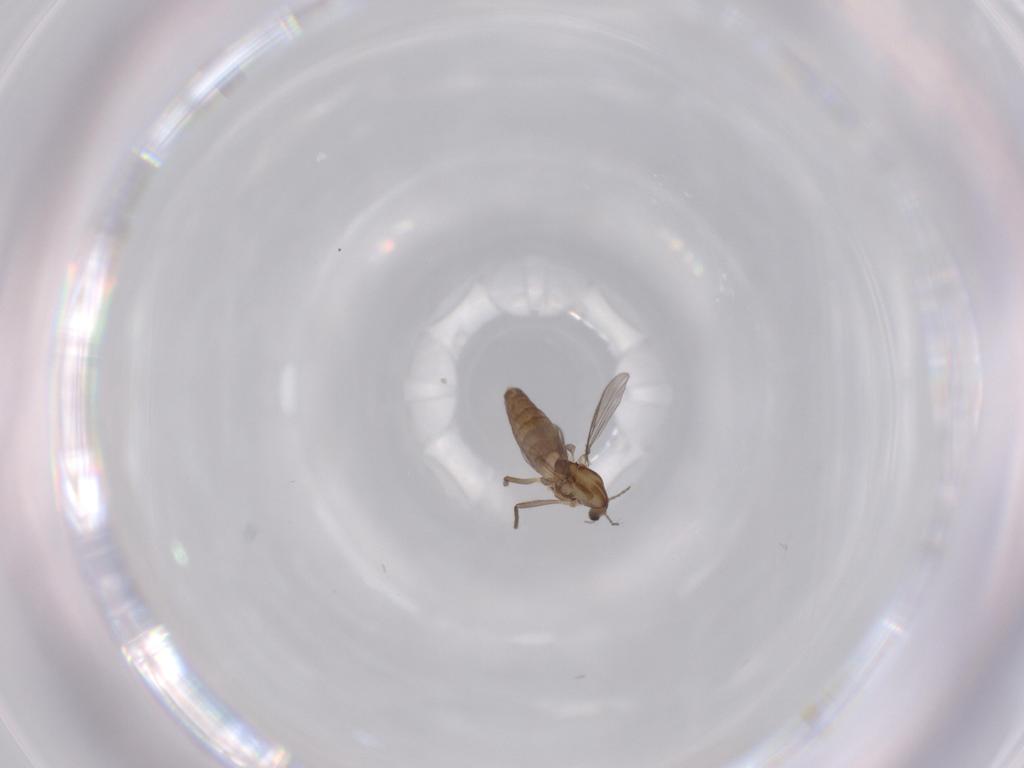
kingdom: Animalia
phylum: Arthropoda
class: Insecta
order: Diptera
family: Chironomidae
